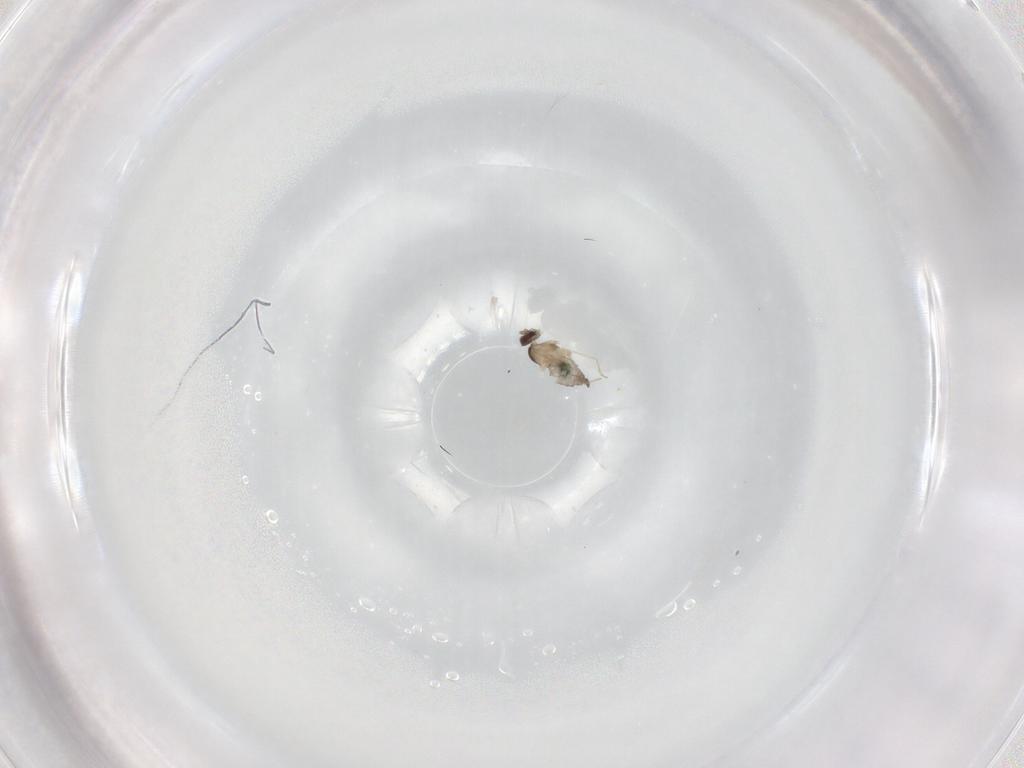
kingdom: Animalia
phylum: Arthropoda
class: Insecta
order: Diptera
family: Cecidomyiidae
